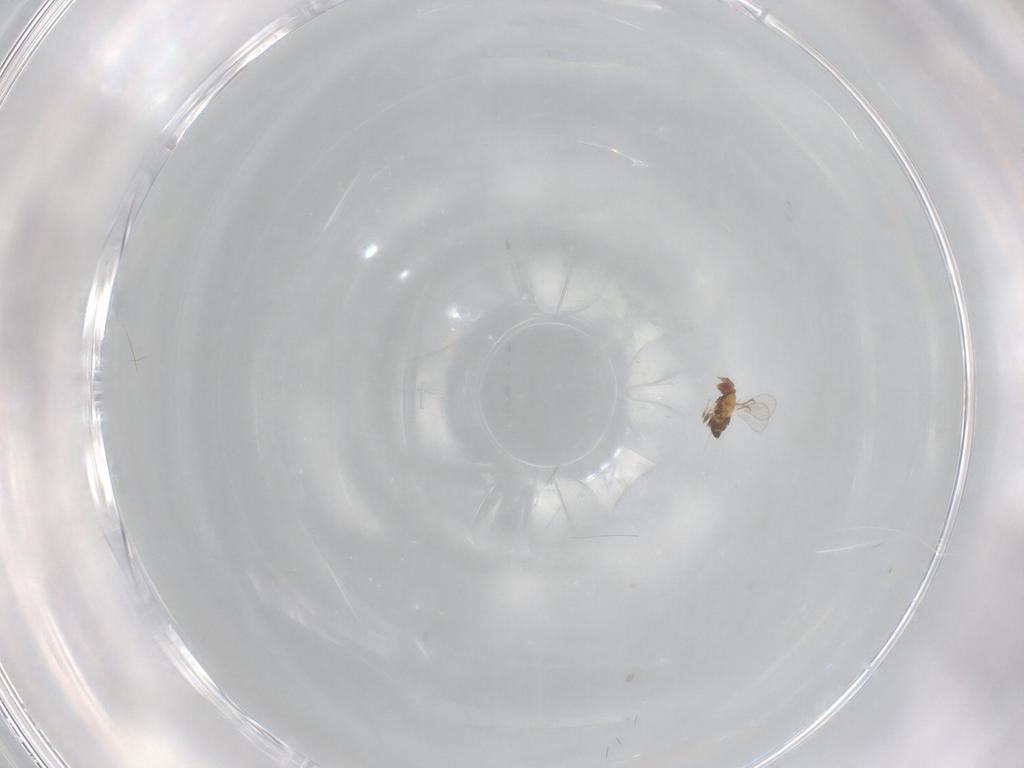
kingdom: Animalia
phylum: Arthropoda
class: Insecta
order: Hymenoptera
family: Trichogrammatidae
